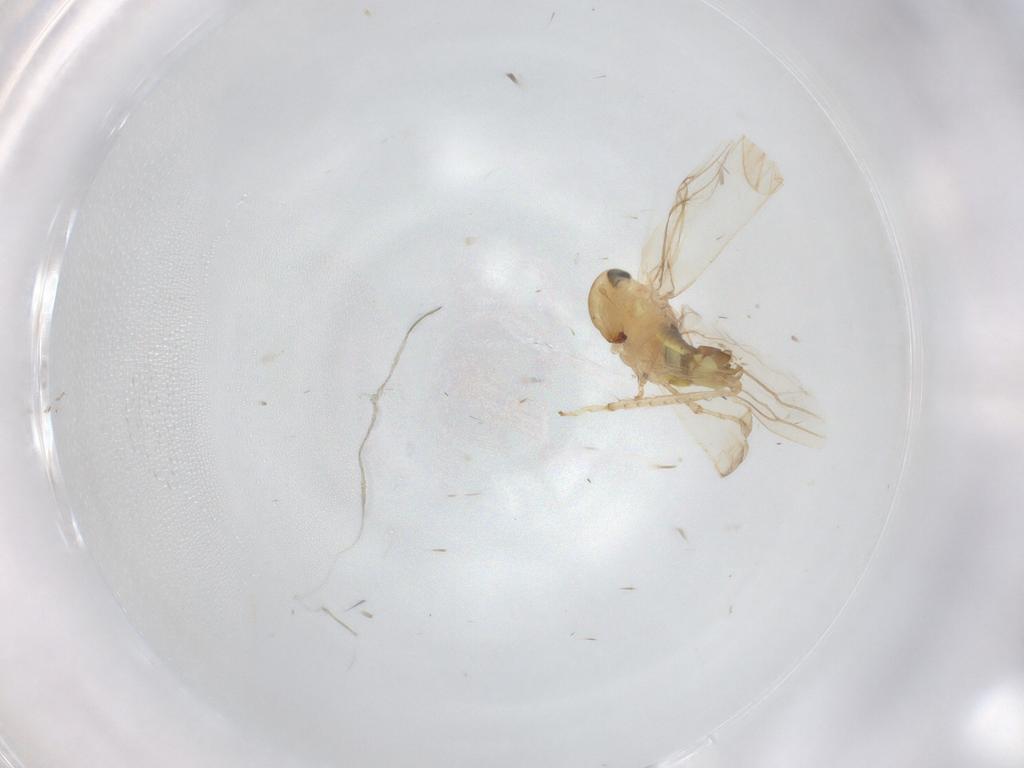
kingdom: Animalia
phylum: Arthropoda
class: Insecta
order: Hemiptera
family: Cicadellidae
